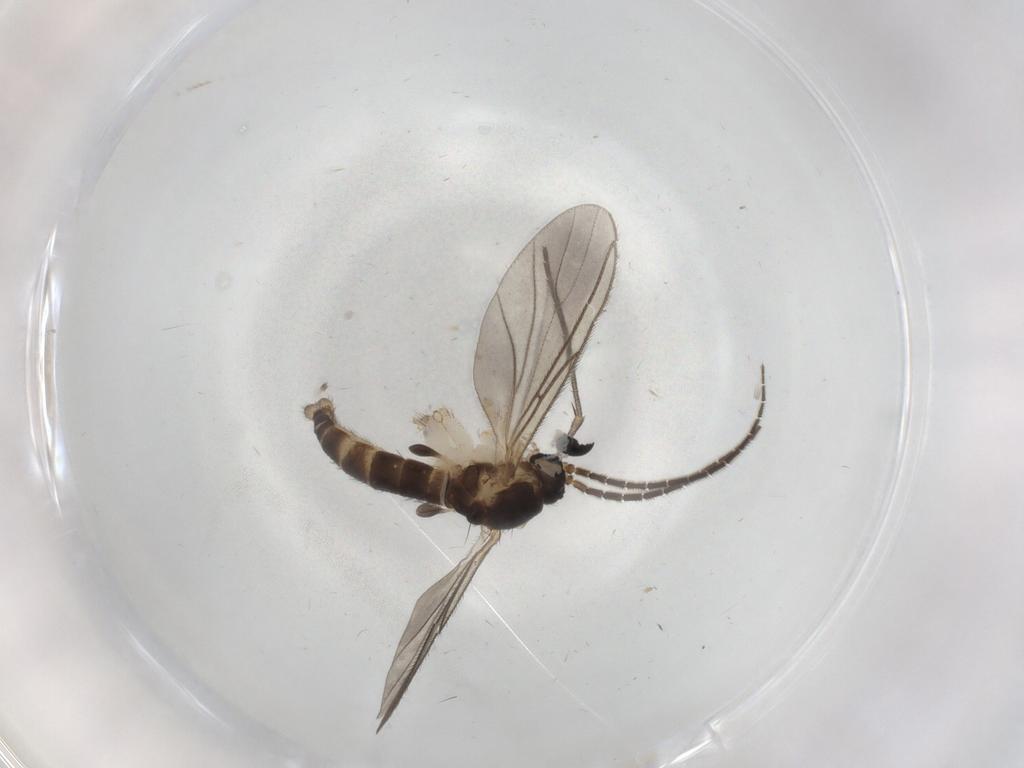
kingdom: Animalia
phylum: Arthropoda
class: Insecta
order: Diptera
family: Sciaridae
